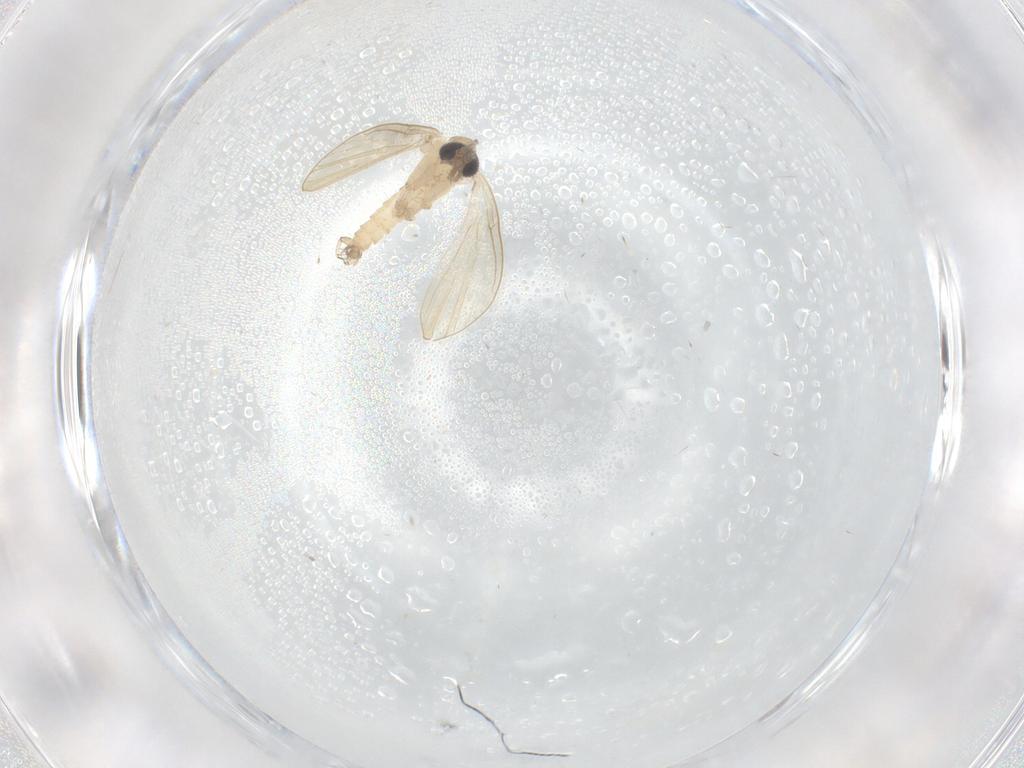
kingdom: Animalia
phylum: Arthropoda
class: Insecta
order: Diptera
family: Psychodidae
